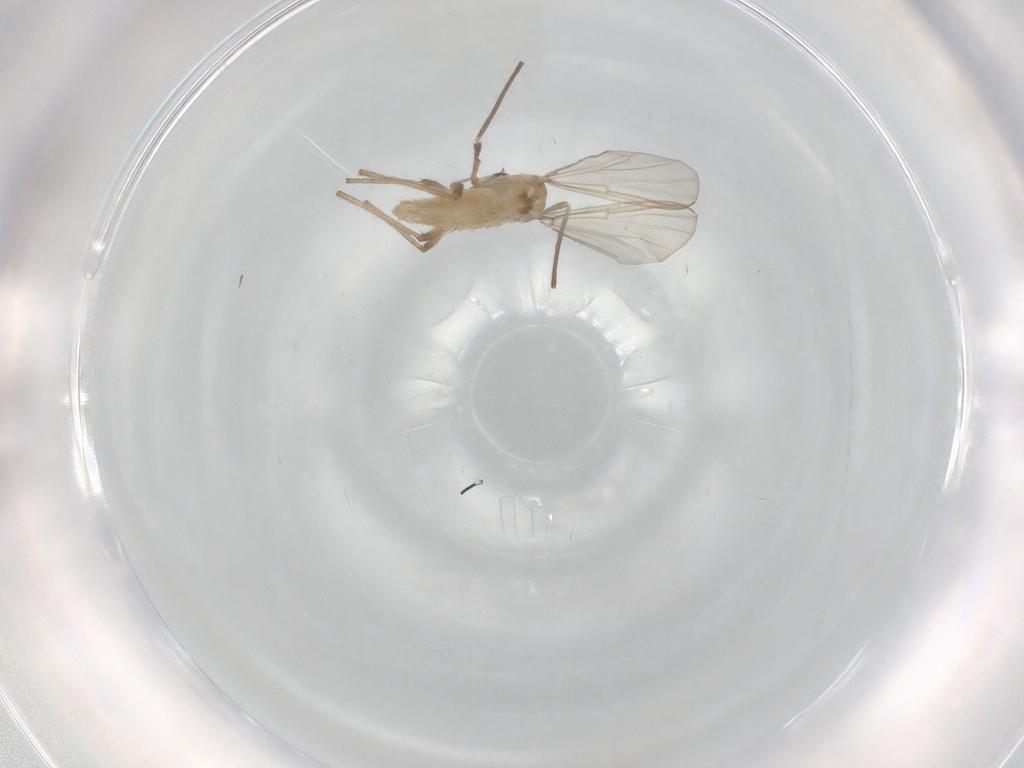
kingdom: Animalia
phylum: Arthropoda
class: Insecta
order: Diptera
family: Chironomidae
